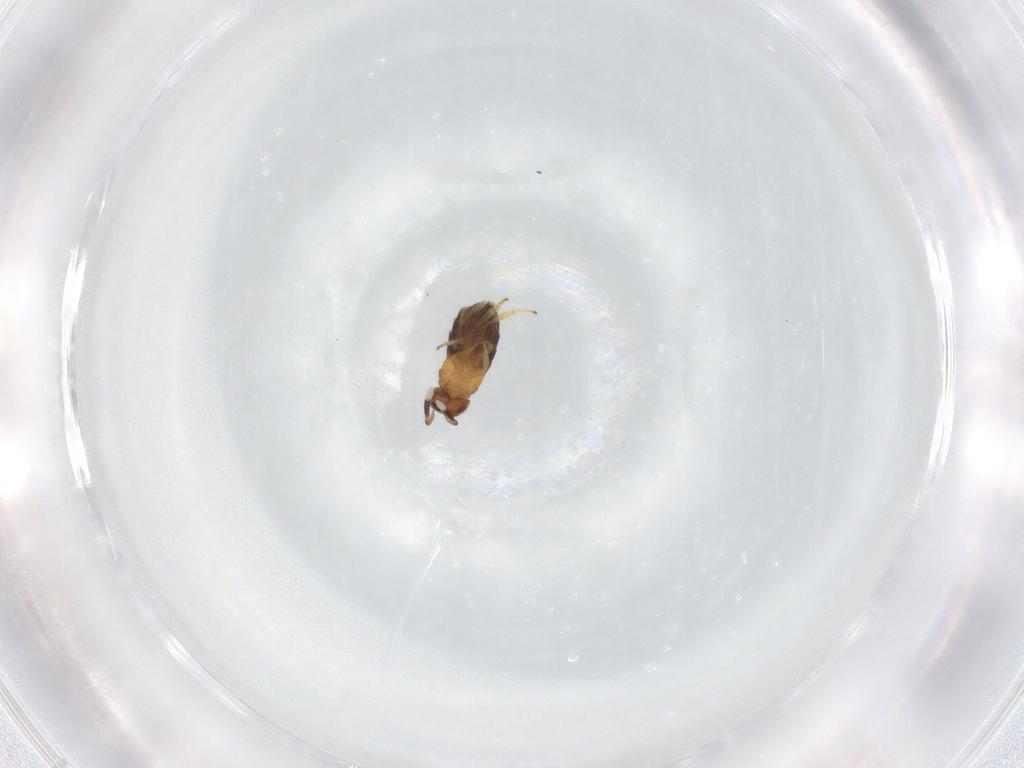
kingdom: Animalia
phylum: Arthropoda
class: Insecta
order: Hymenoptera
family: Encyrtidae
